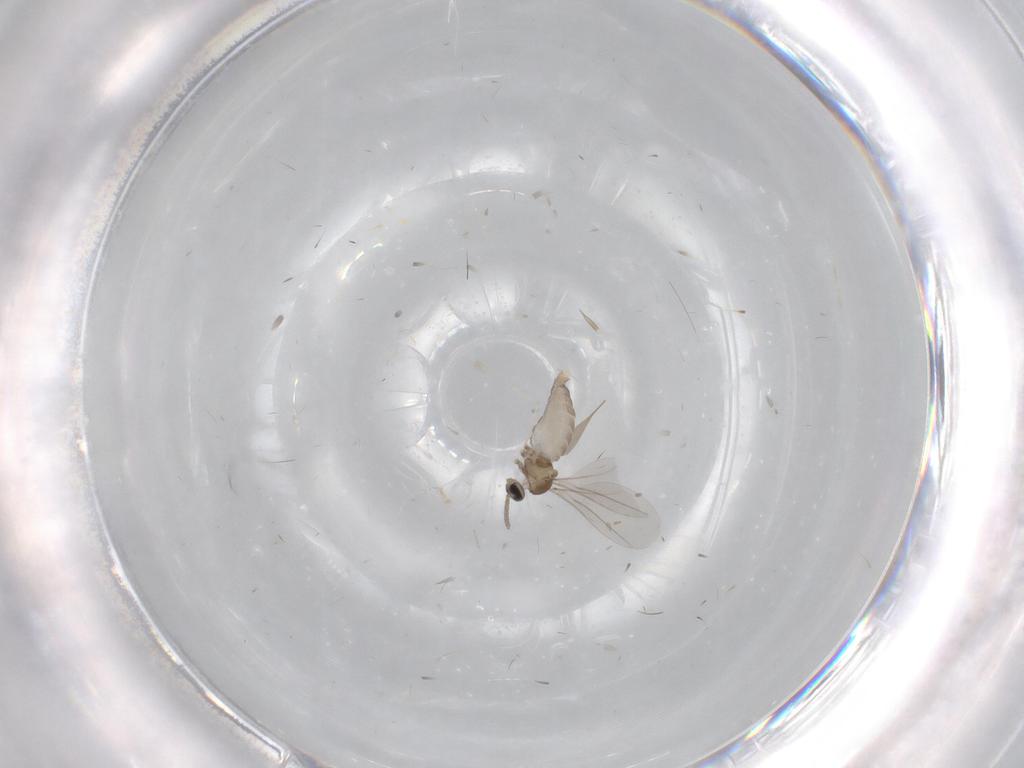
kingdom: Animalia
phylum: Arthropoda
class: Insecta
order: Diptera
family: Cecidomyiidae
